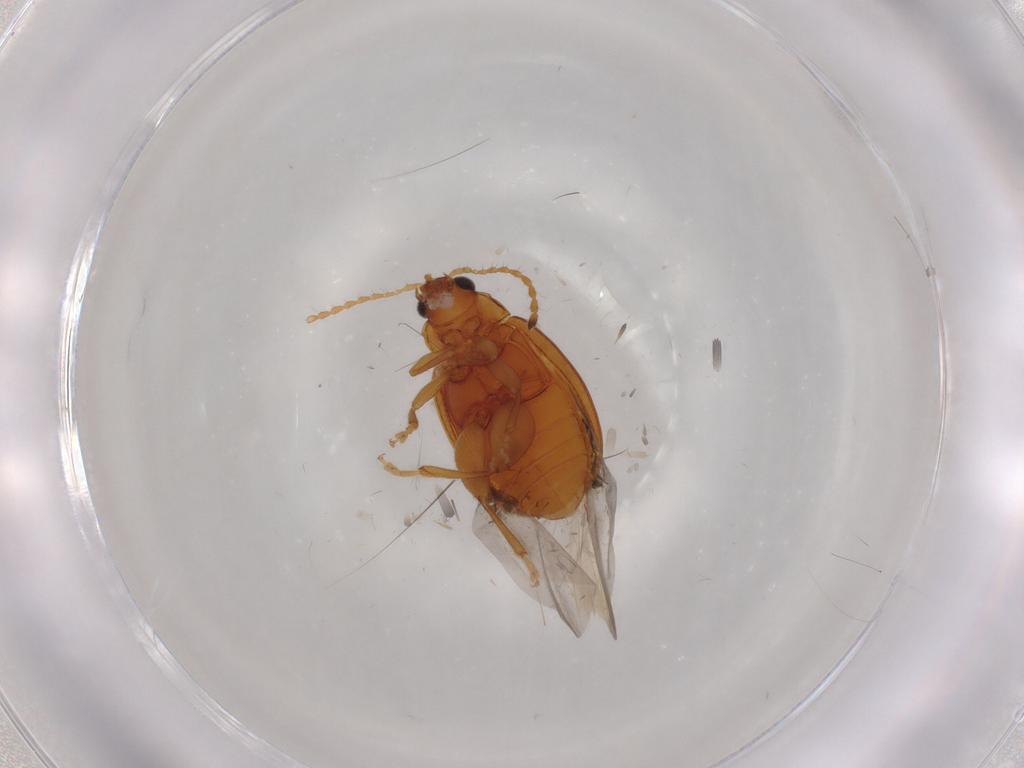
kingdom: Animalia
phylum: Arthropoda
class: Insecta
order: Coleoptera
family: Chrysomelidae
